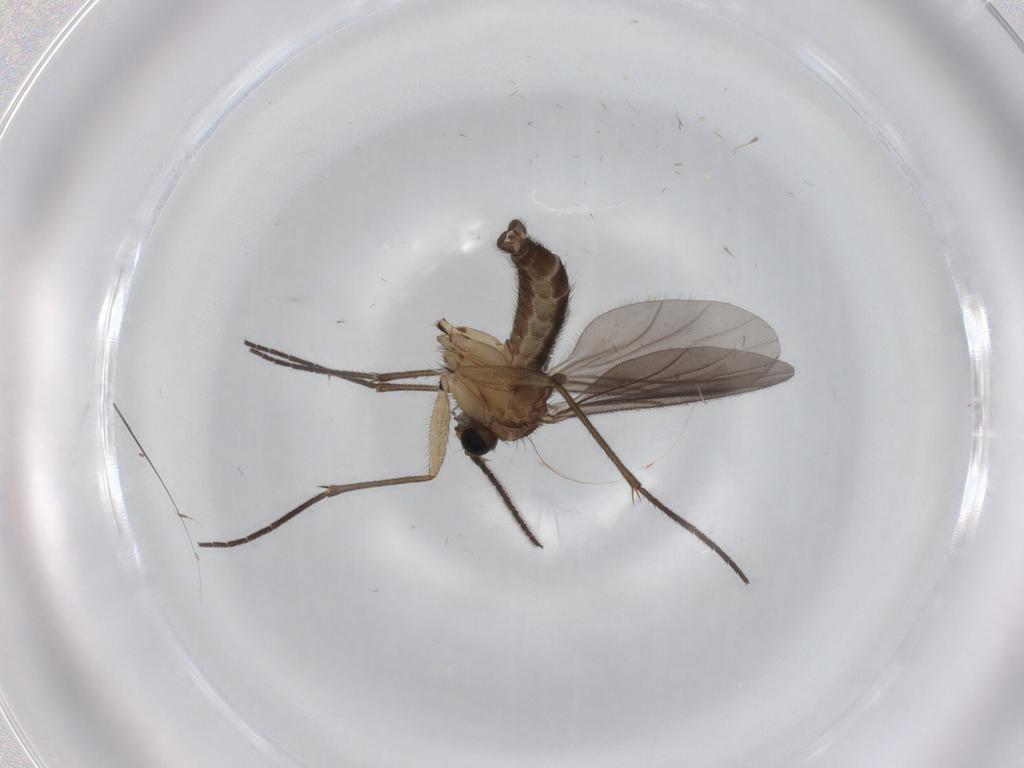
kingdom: Animalia
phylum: Arthropoda
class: Insecta
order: Diptera
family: Sciaridae
